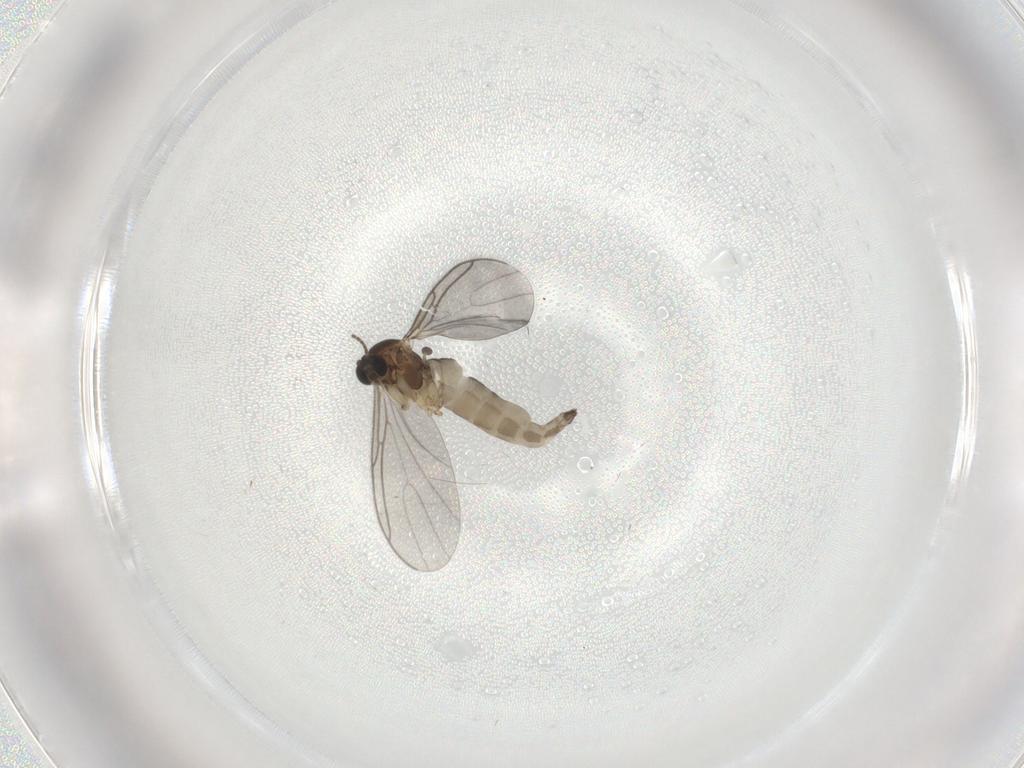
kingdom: Animalia
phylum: Arthropoda
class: Insecta
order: Diptera
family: Sciaridae
